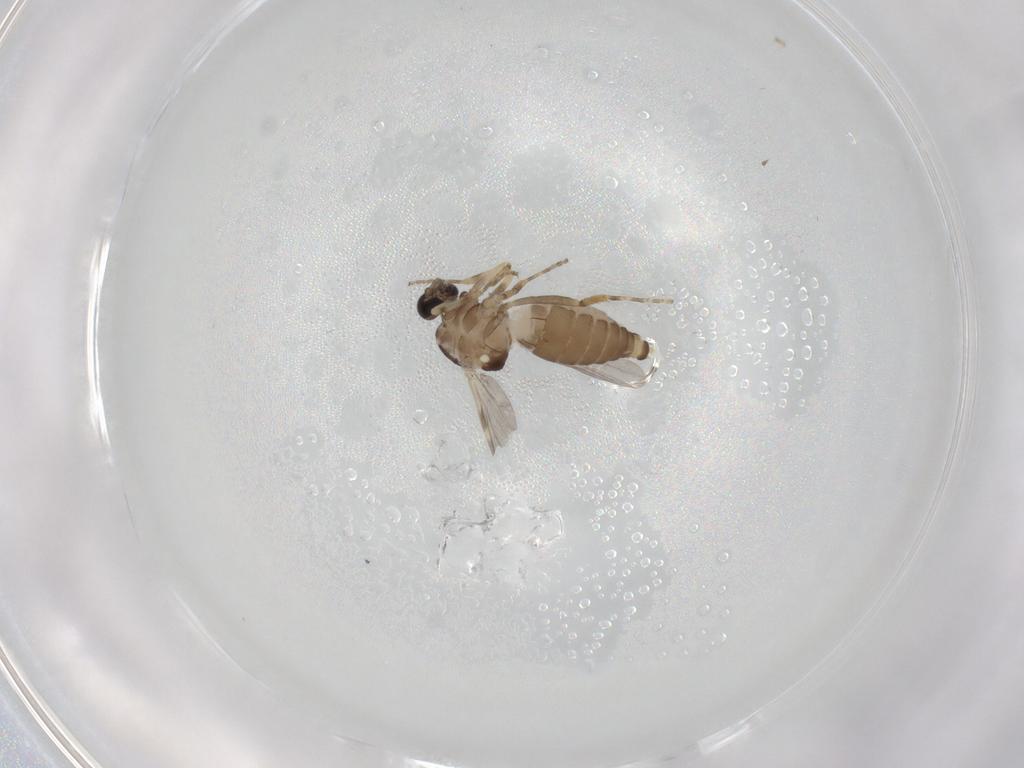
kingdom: Animalia
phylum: Arthropoda
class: Insecta
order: Diptera
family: Ceratopogonidae
